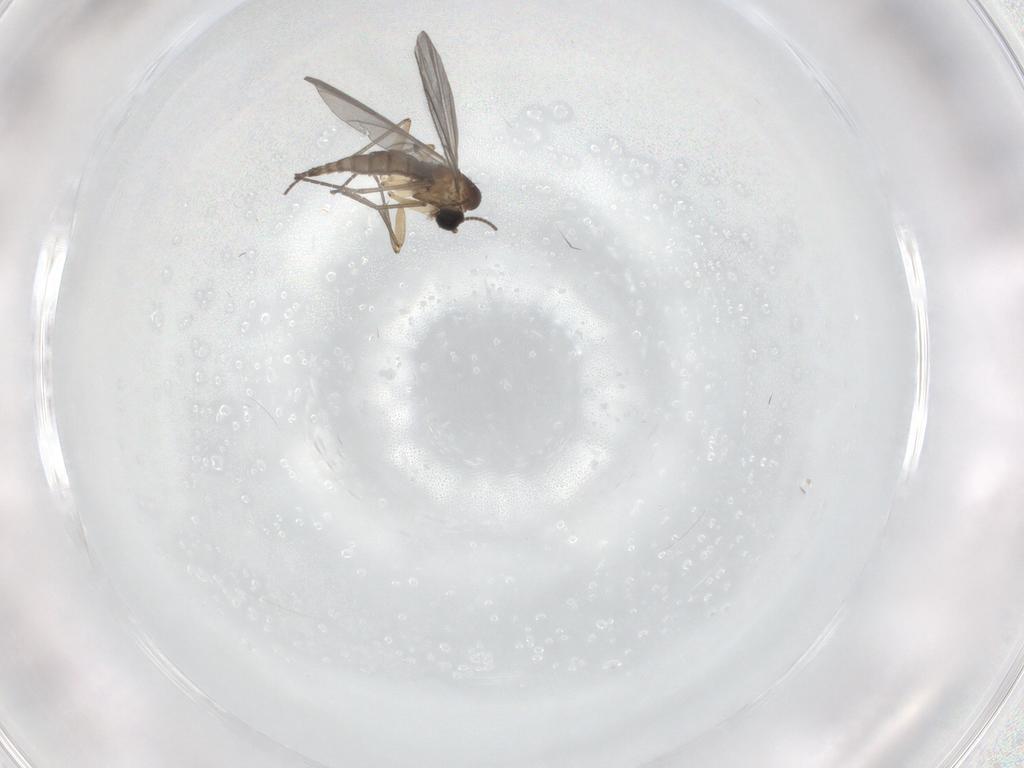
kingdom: Animalia
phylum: Arthropoda
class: Insecta
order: Diptera
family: Sciaridae
